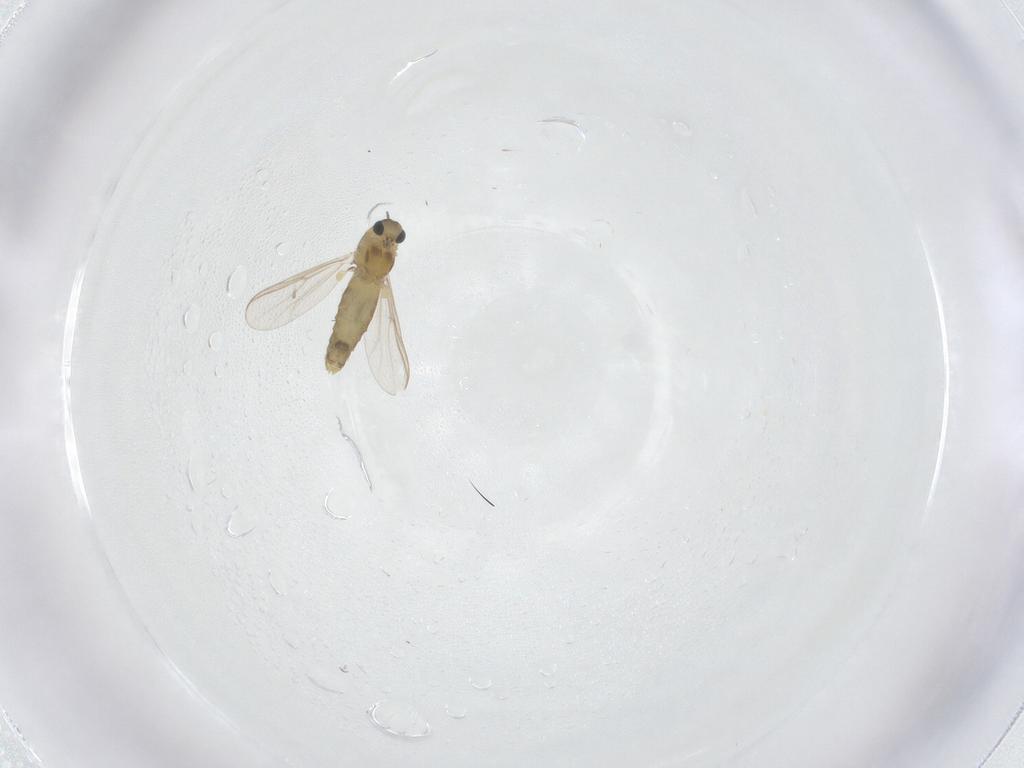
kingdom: Animalia
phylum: Arthropoda
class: Insecta
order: Diptera
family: Chironomidae
